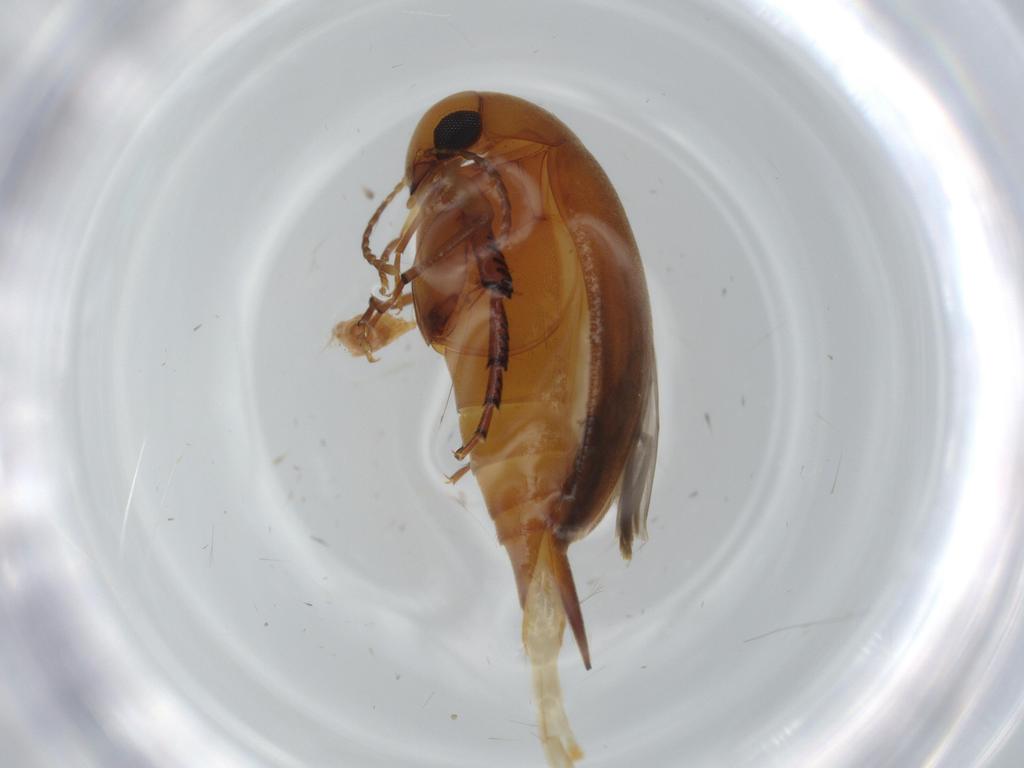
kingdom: Animalia
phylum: Arthropoda
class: Insecta
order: Coleoptera
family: Mordellidae
